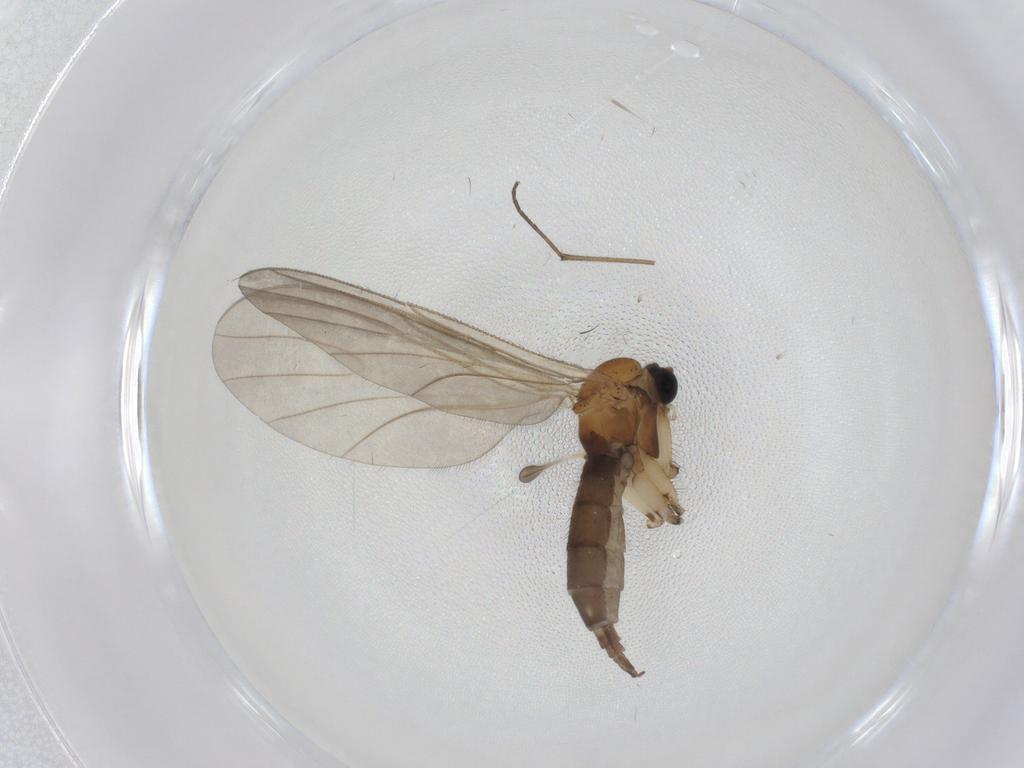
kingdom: Animalia
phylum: Arthropoda
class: Insecta
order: Diptera
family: Sciaridae
